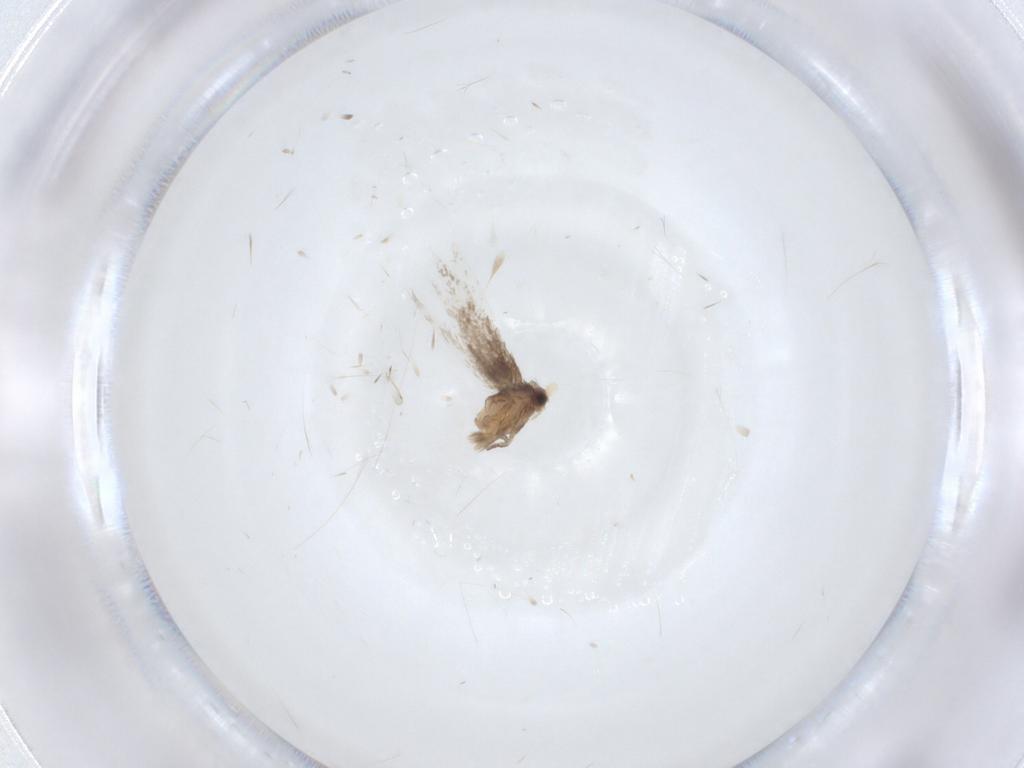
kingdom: Animalia
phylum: Arthropoda
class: Insecta
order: Lepidoptera
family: Nepticulidae
